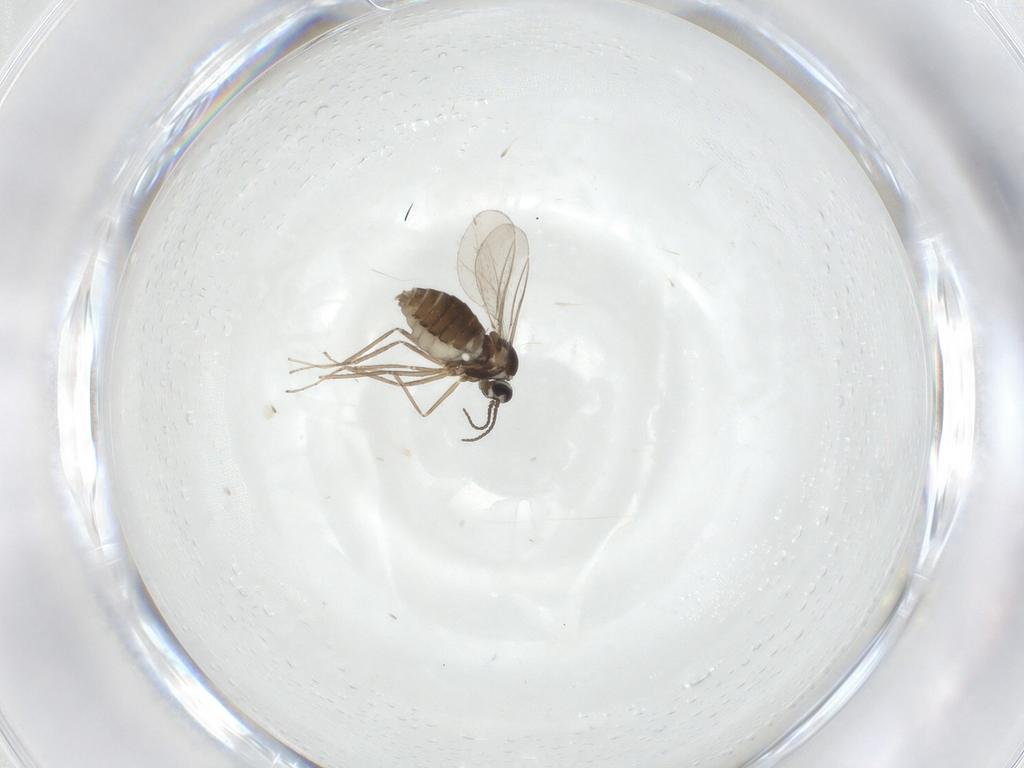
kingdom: Animalia
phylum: Arthropoda
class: Insecta
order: Diptera
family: Cecidomyiidae
